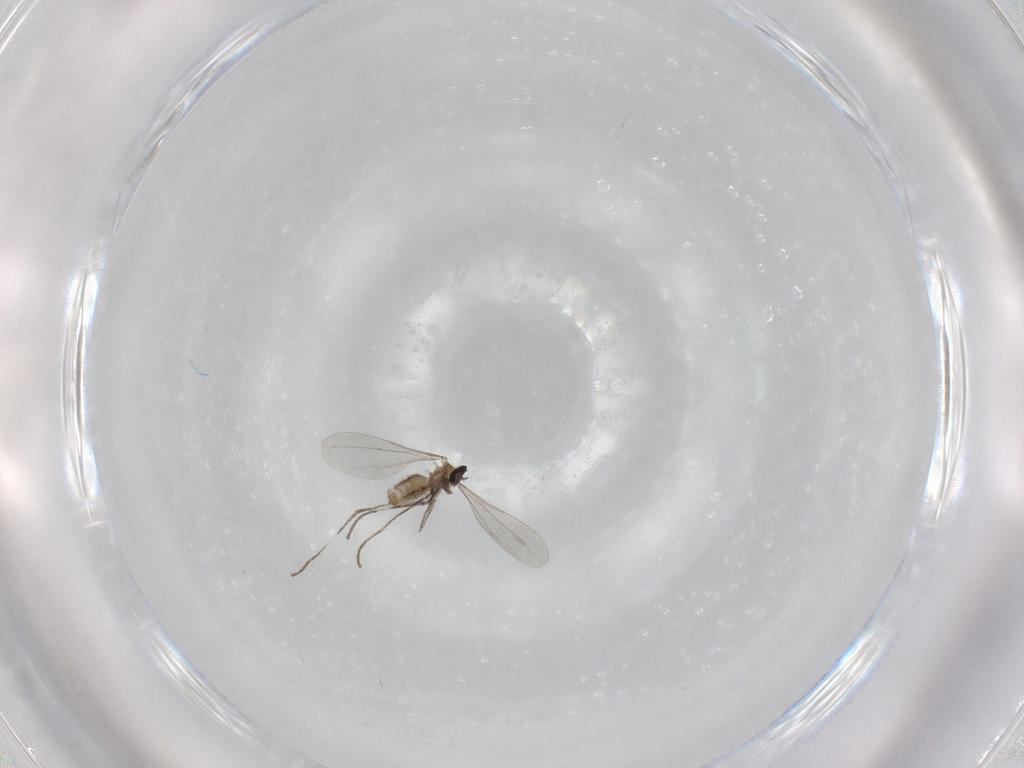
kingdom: Animalia
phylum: Arthropoda
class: Insecta
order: Diptera
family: Cecidomyiidae
